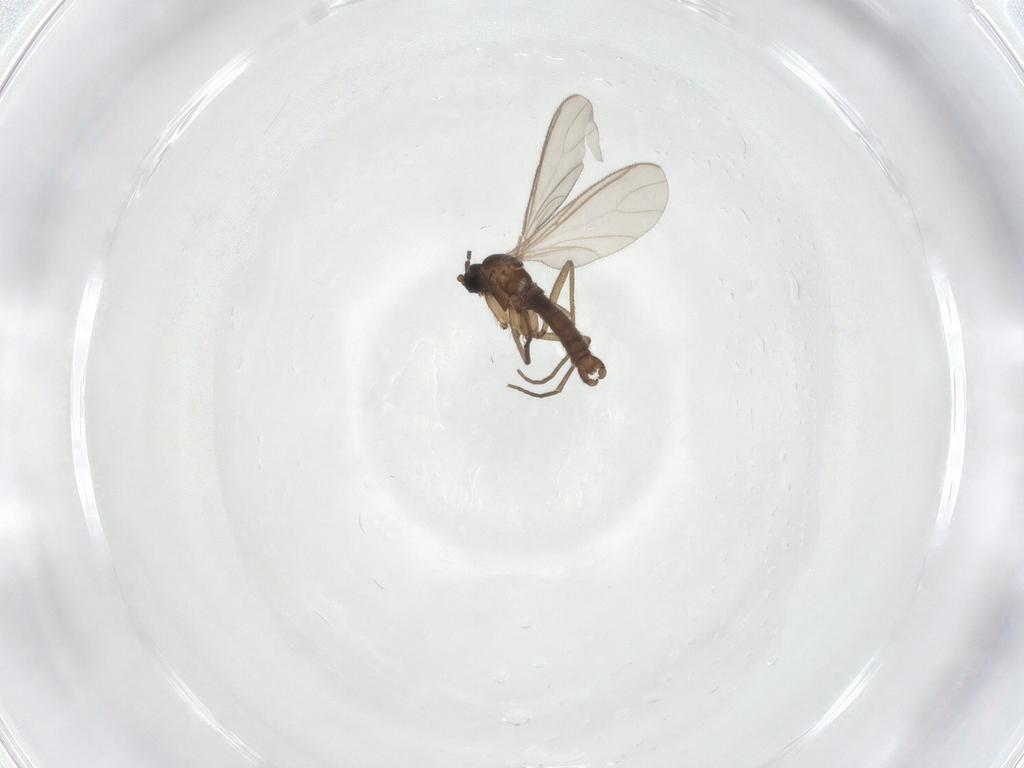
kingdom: Animalia
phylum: Arthropoda
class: Insecta
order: Diptera
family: Sciaridae
